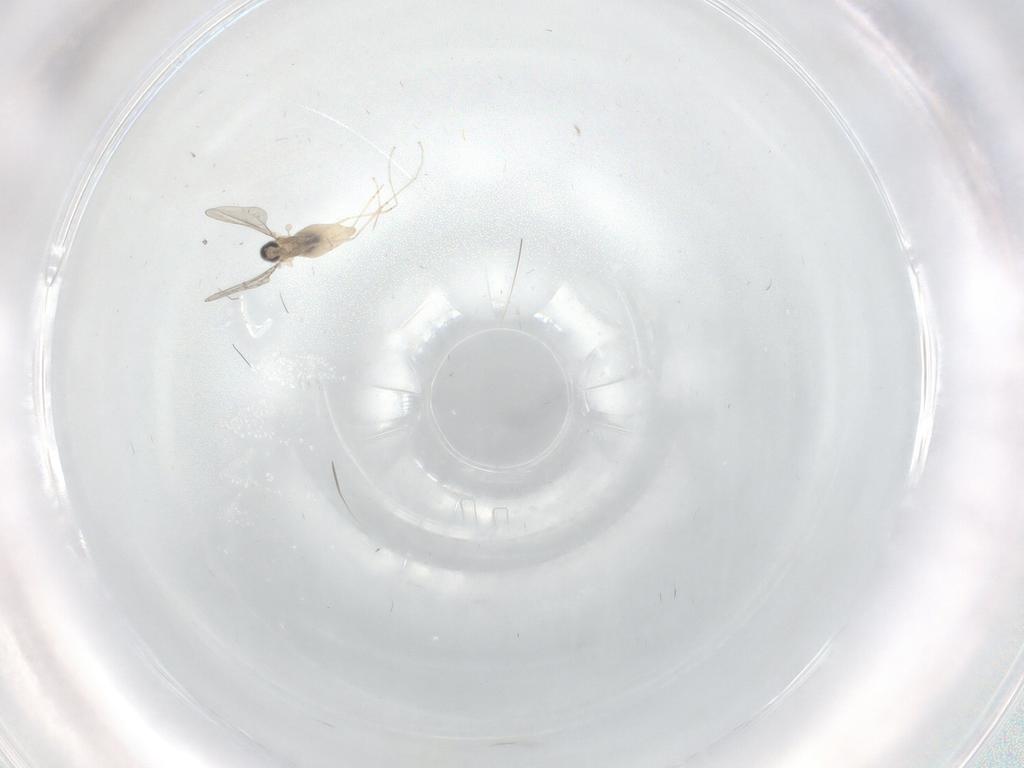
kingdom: Animalia
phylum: Arthropoda
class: Insecta
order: Diptera
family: Cecidomyiidae
